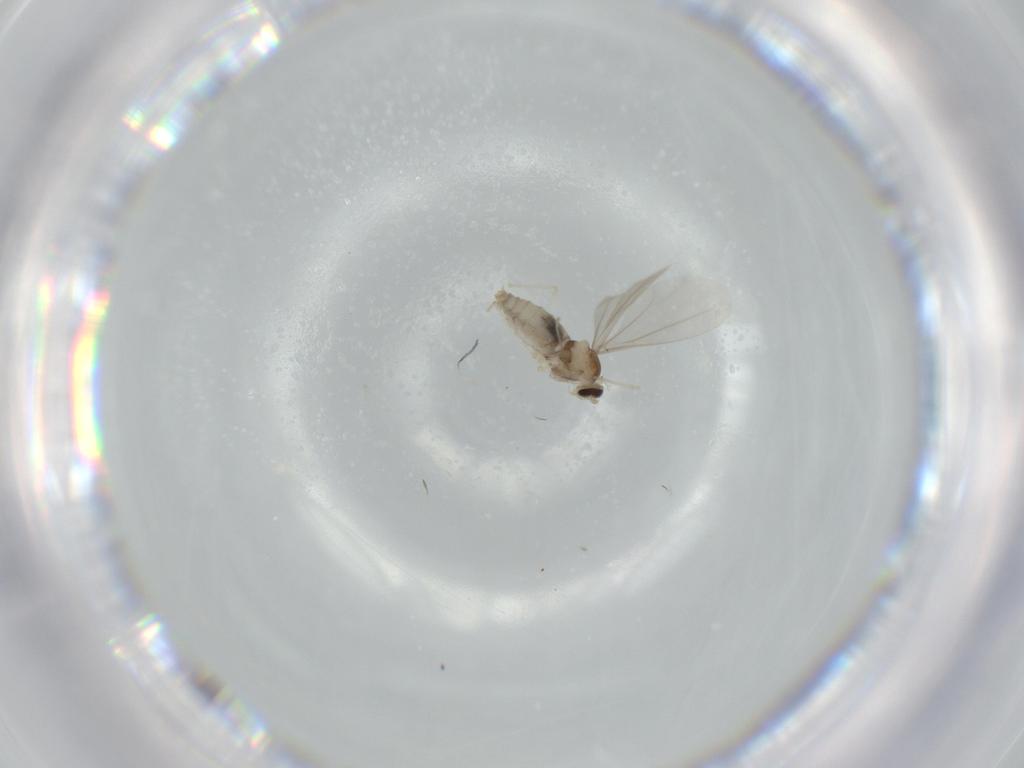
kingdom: Animalia
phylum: Arthropoda
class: Insecta
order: Diptera
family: Cecidomyiidae
